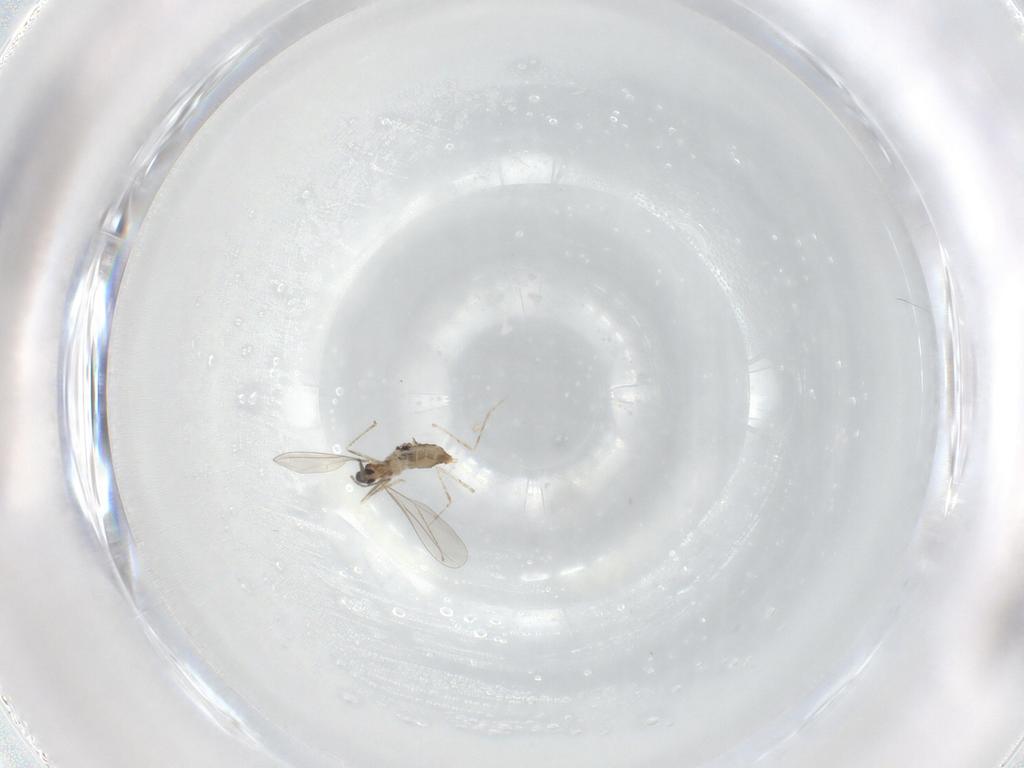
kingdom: Animalia
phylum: Arthropoda
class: Insecta
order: Diptera
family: Cecidomyiidae
